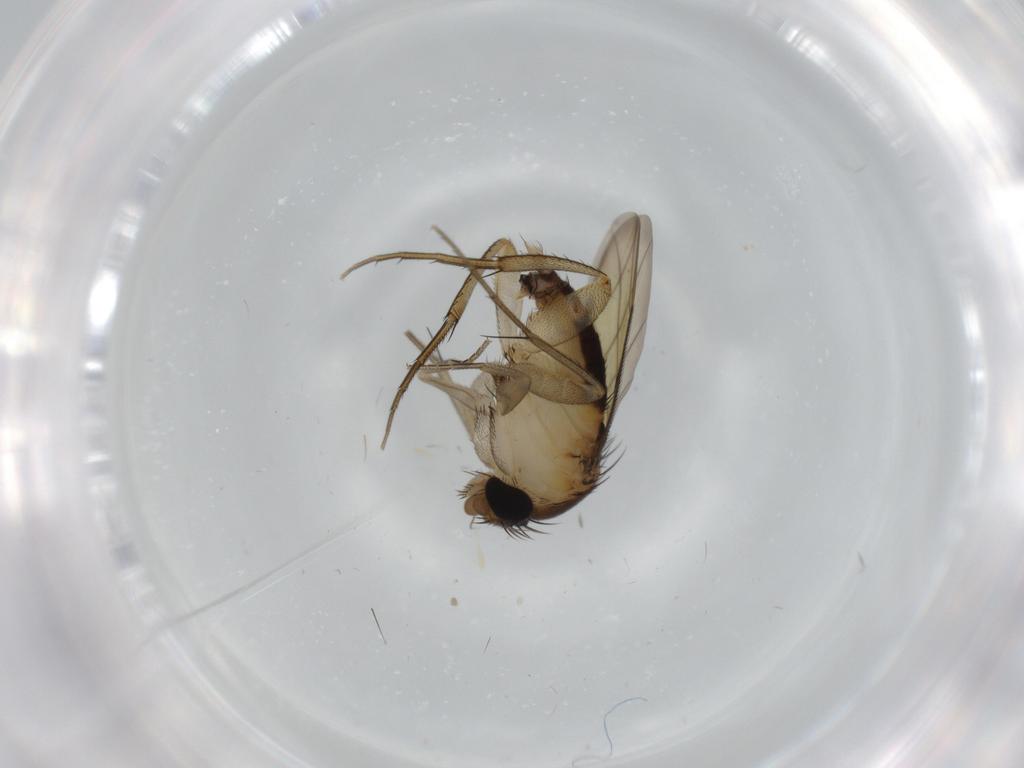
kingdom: Animalia
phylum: Arthropoda
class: Insecta
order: Diptera
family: Phoridae
